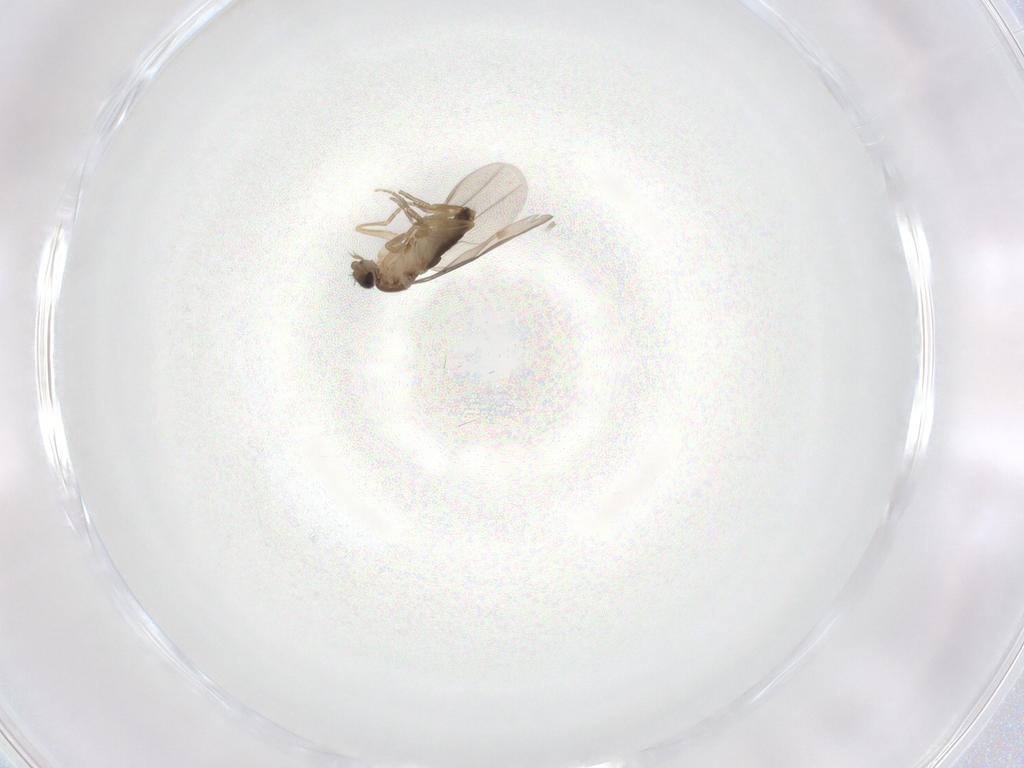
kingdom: Animalia
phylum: Arthropoda
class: Insecta
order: Diptera
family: Phoridae
